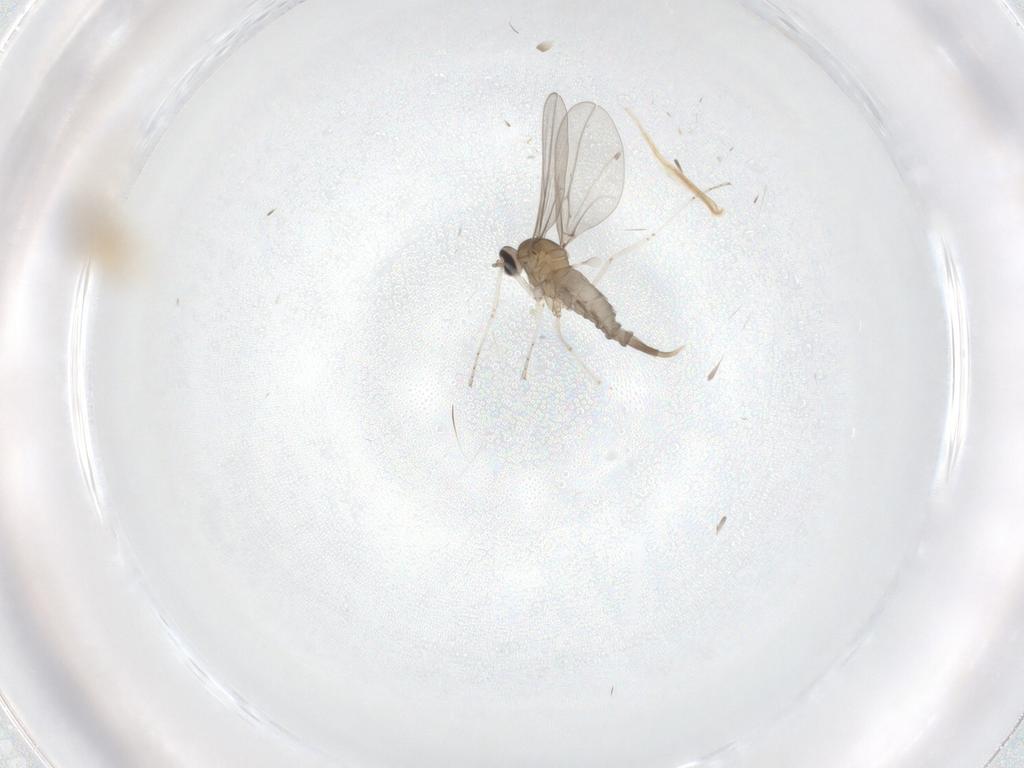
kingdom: Animalia
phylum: Arthropoda
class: Insecta
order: Diptera
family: Cecidomyiidae
